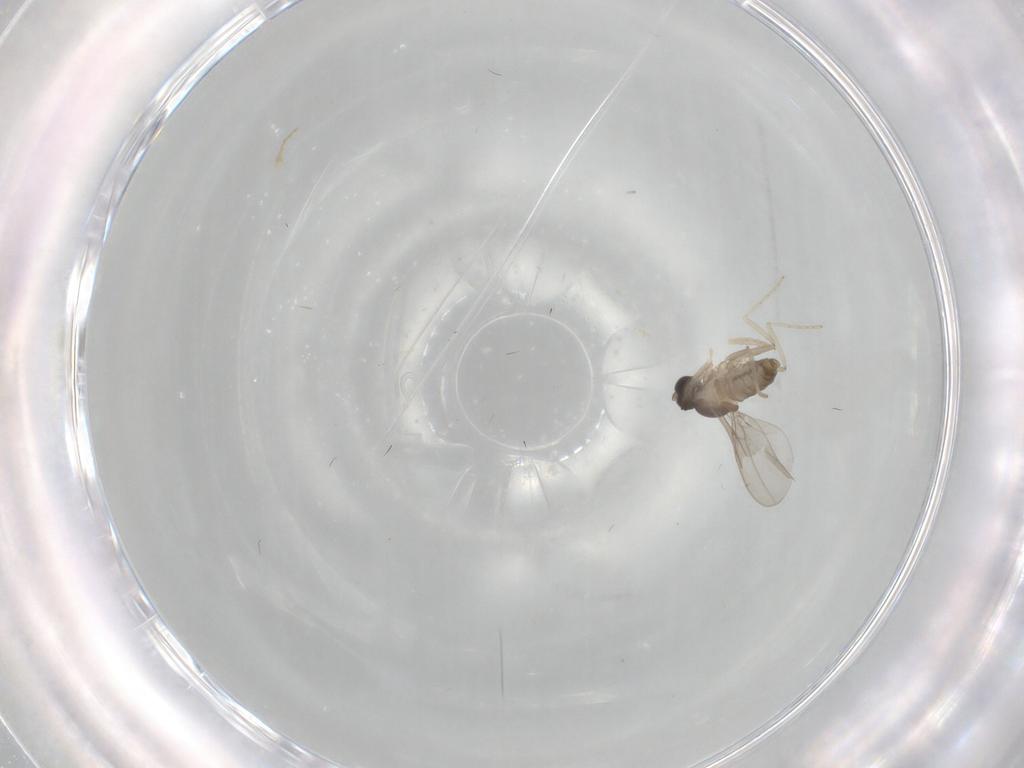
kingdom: Animalia
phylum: Arthropoda
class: Insecta
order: Diptera
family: Cecidomyiidae
